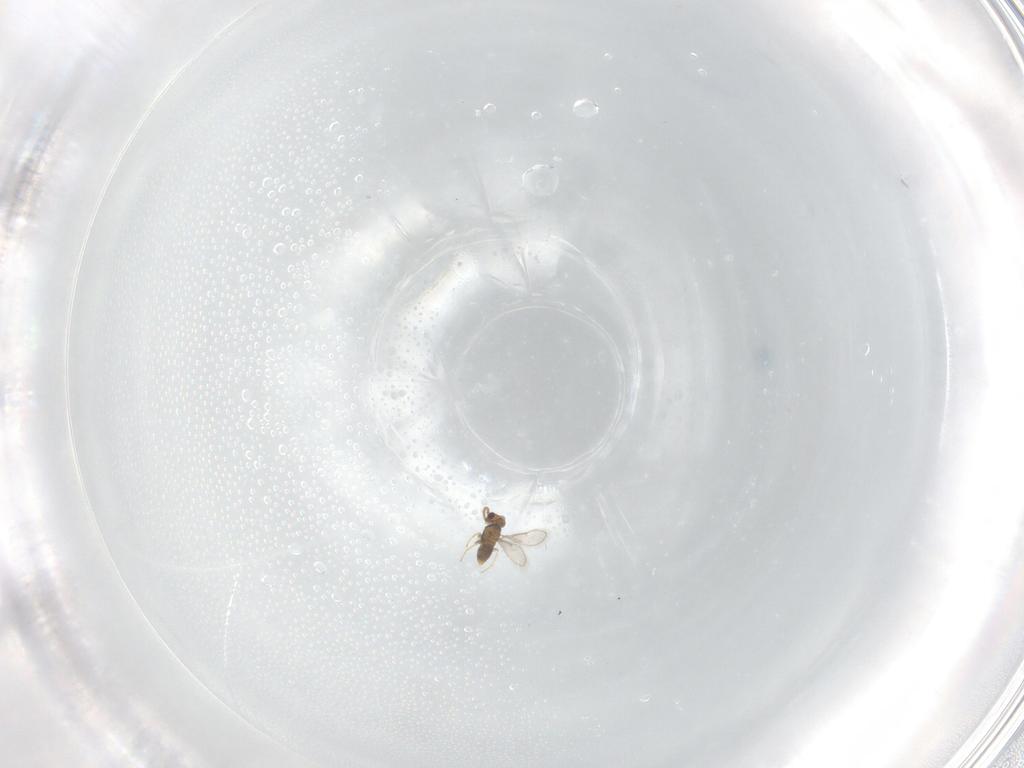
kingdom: Animalia
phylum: Arthropoda
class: Insecta
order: Hymenoptera
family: Aphelinidae
